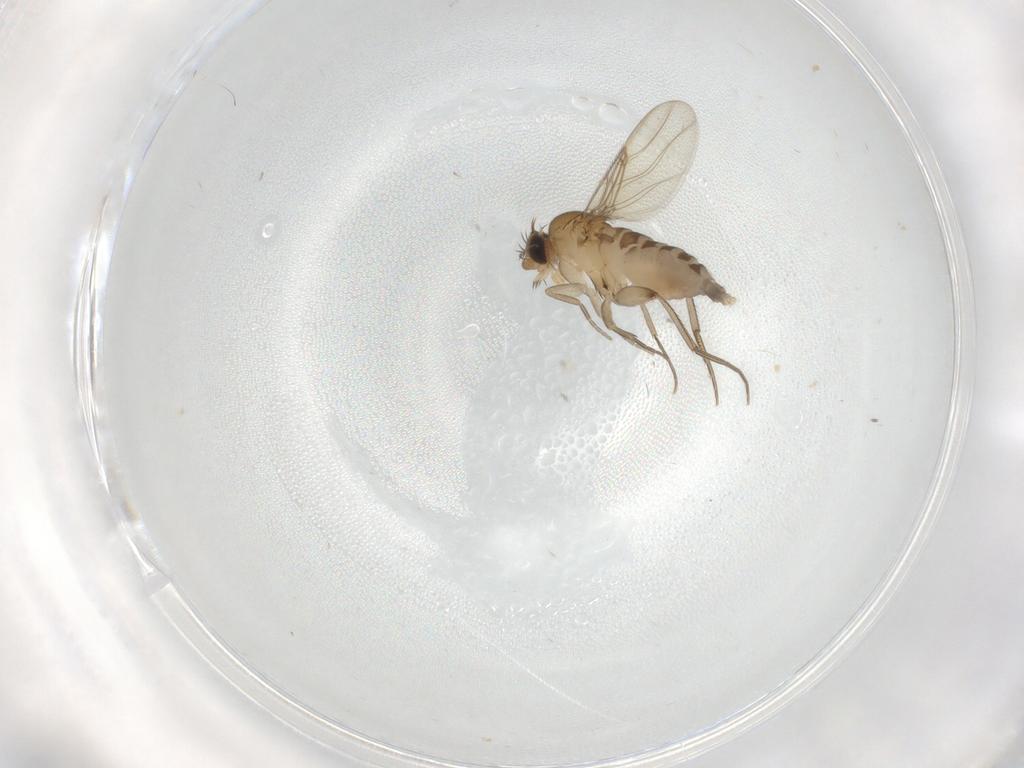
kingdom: Animalia
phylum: Arthropoda
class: Insecta
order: Diptera
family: Phoridae
